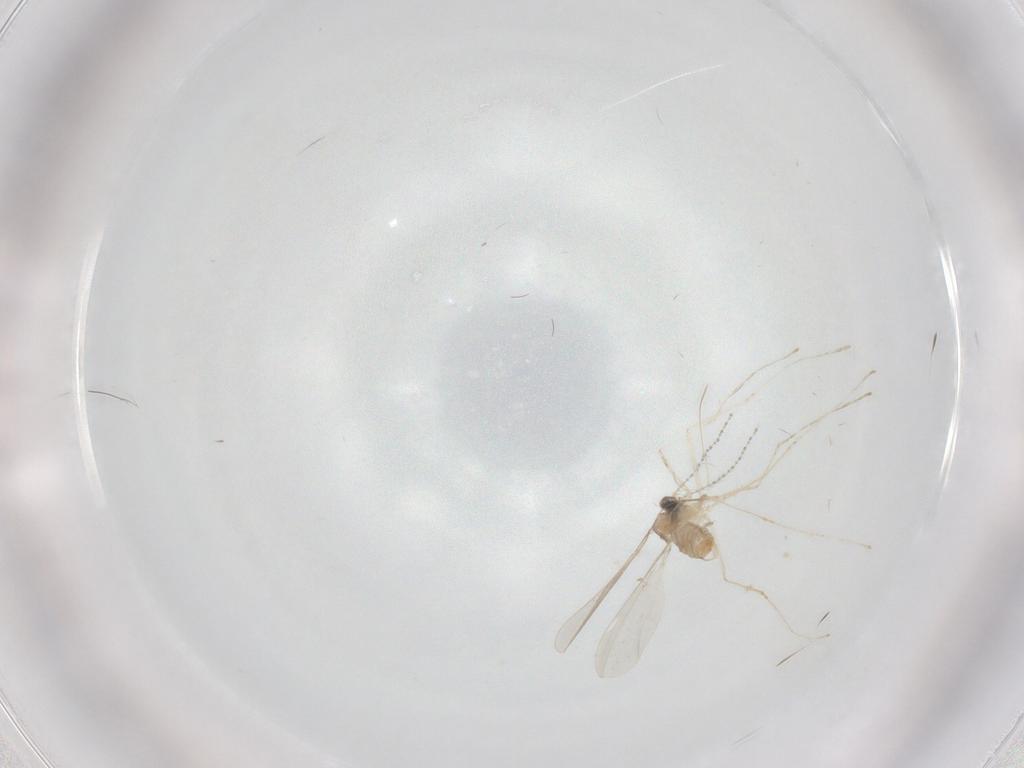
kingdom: Animalia
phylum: Arthropoda
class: Insecta
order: Diptera
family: Cecidomyiidae
